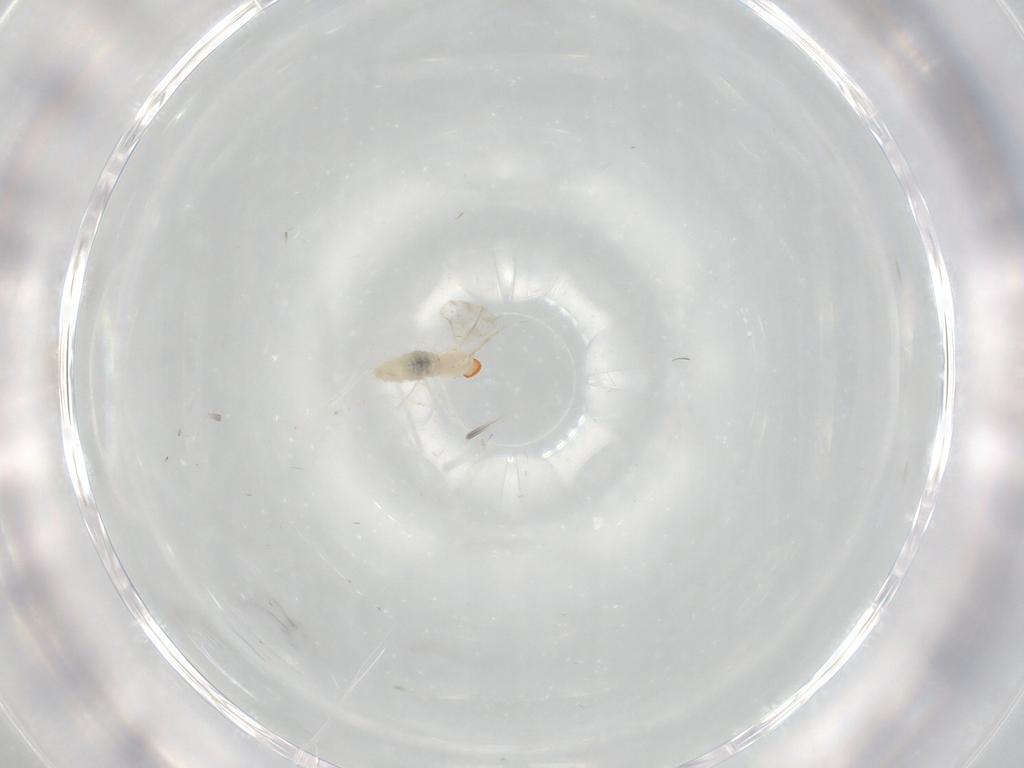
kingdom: Animalia
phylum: Arthropoda
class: Insecta
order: Diptera
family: Cecidomyiidae
